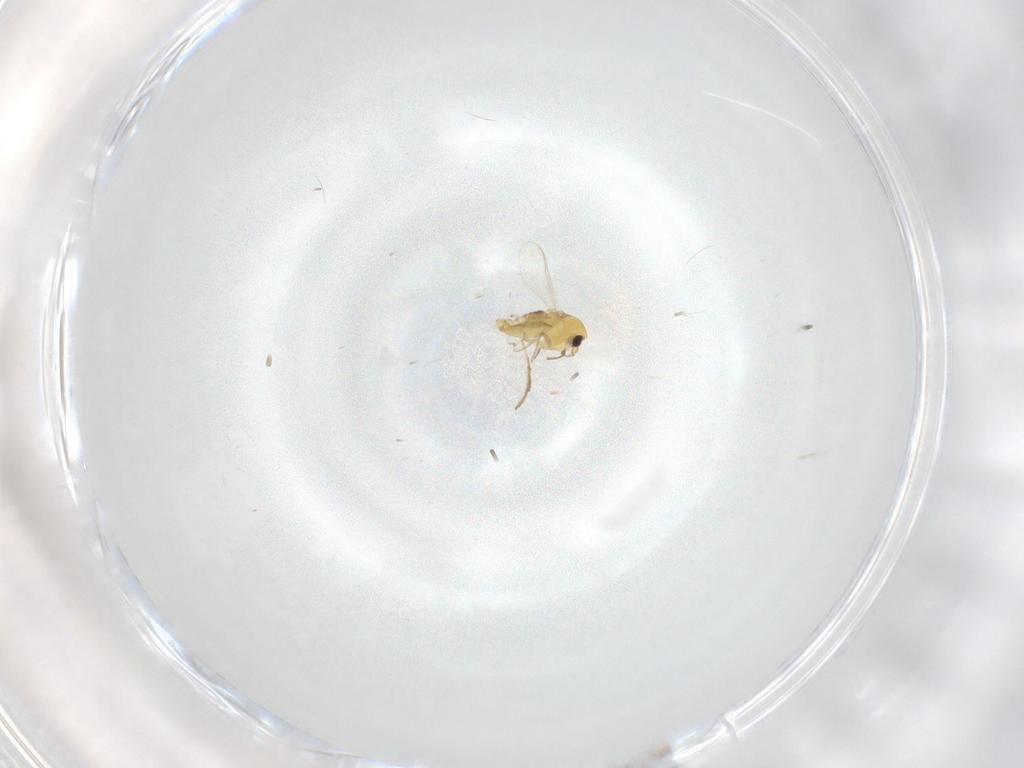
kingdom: Animalia
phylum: Arthropoda
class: Insecta
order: Diptera
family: Chironomidae
